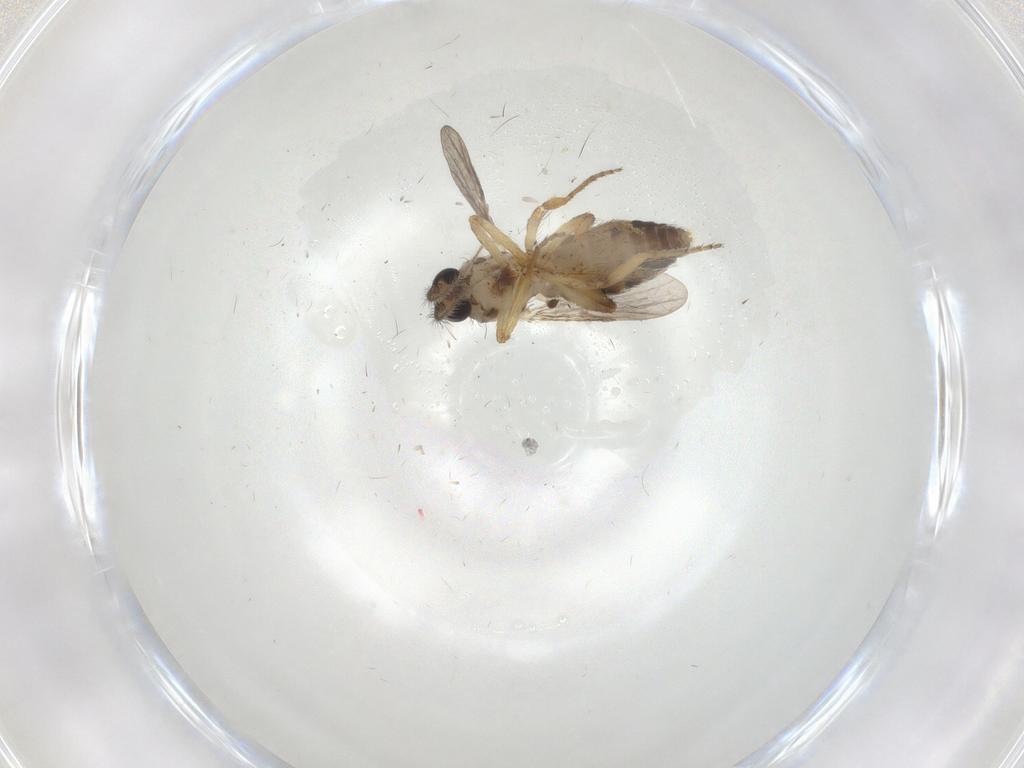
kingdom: Animalia
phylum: Arthropoda
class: Insecta
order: Diptera
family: Ceratopogonidae
